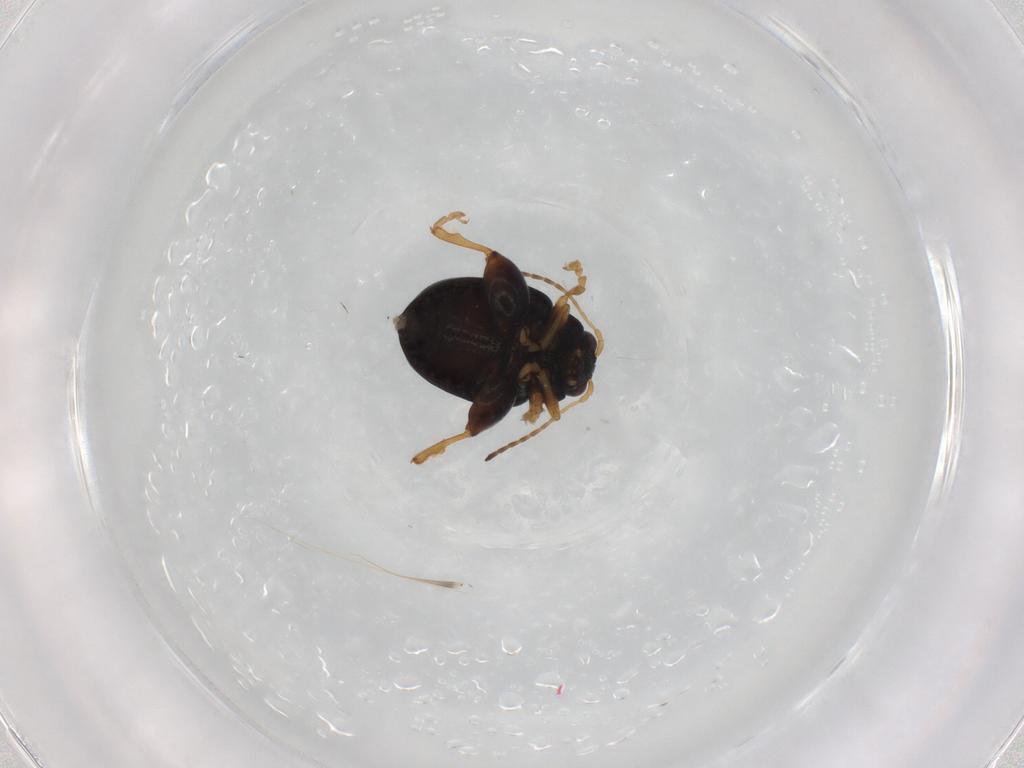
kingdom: Animalia
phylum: Arthropoda
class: Insecta
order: Coleoptera
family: Chrysomelidae
